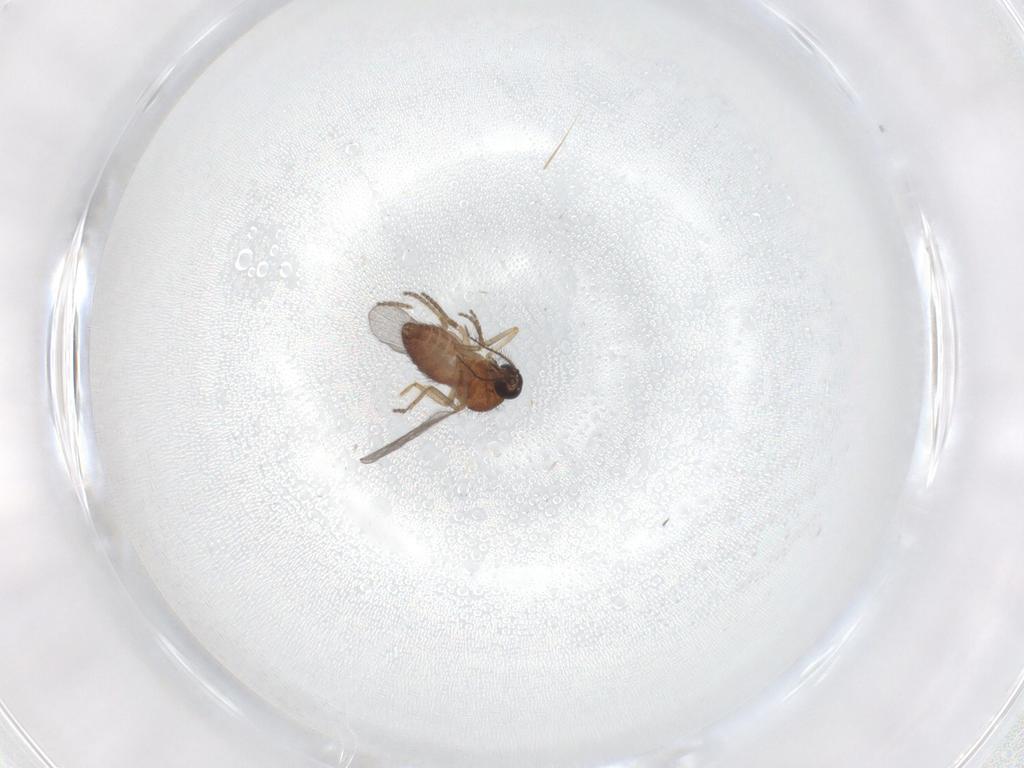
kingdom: Animalia
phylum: Arthropoda
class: Insecta
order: Diptera
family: Ceratopogonidae
